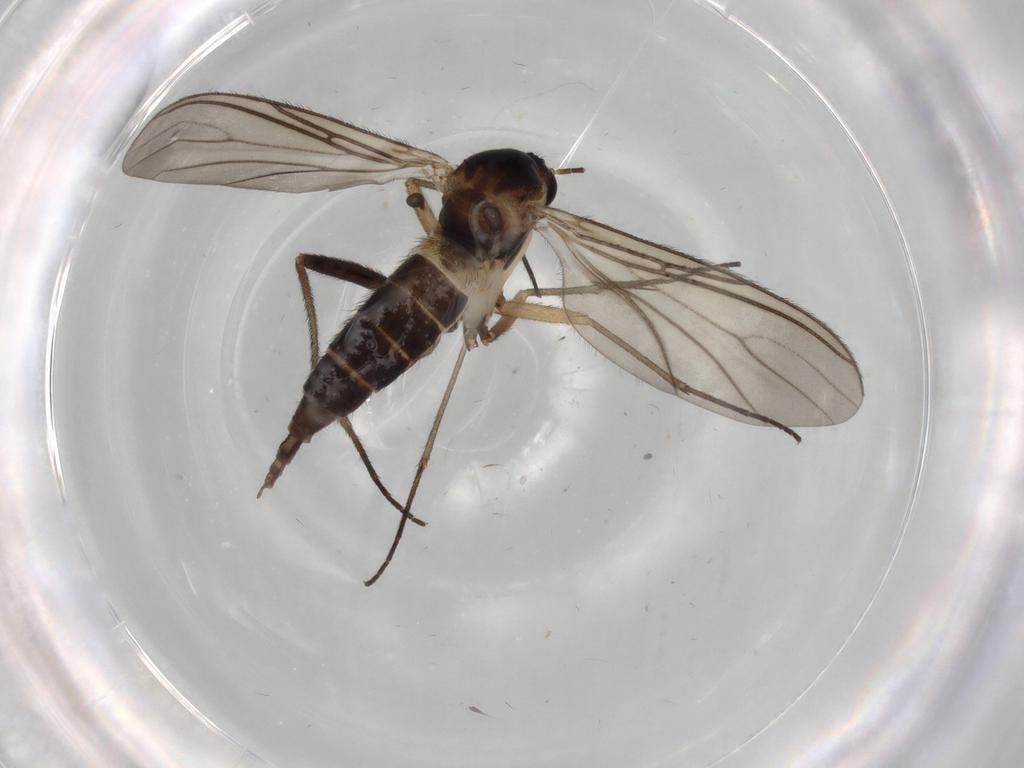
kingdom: Animalia
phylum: Arthropoda
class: Insecta
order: Diptera
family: Sciaridae
